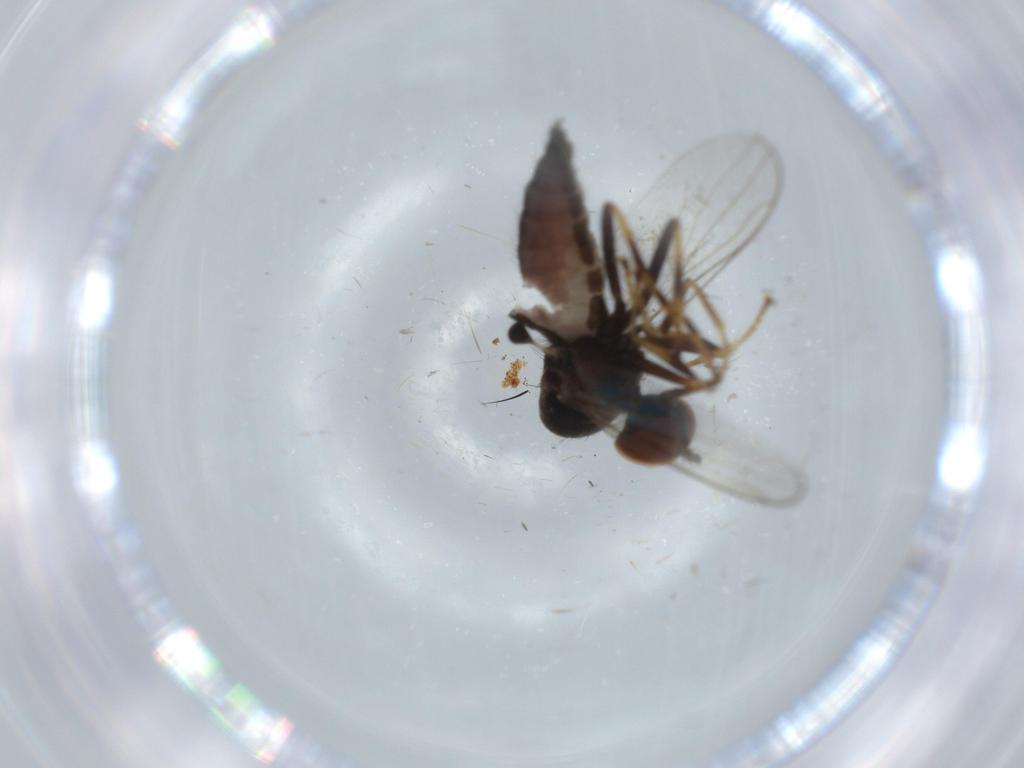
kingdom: Animalia
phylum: Arthropoda
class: Insecta
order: Diptera
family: Hybotidae
